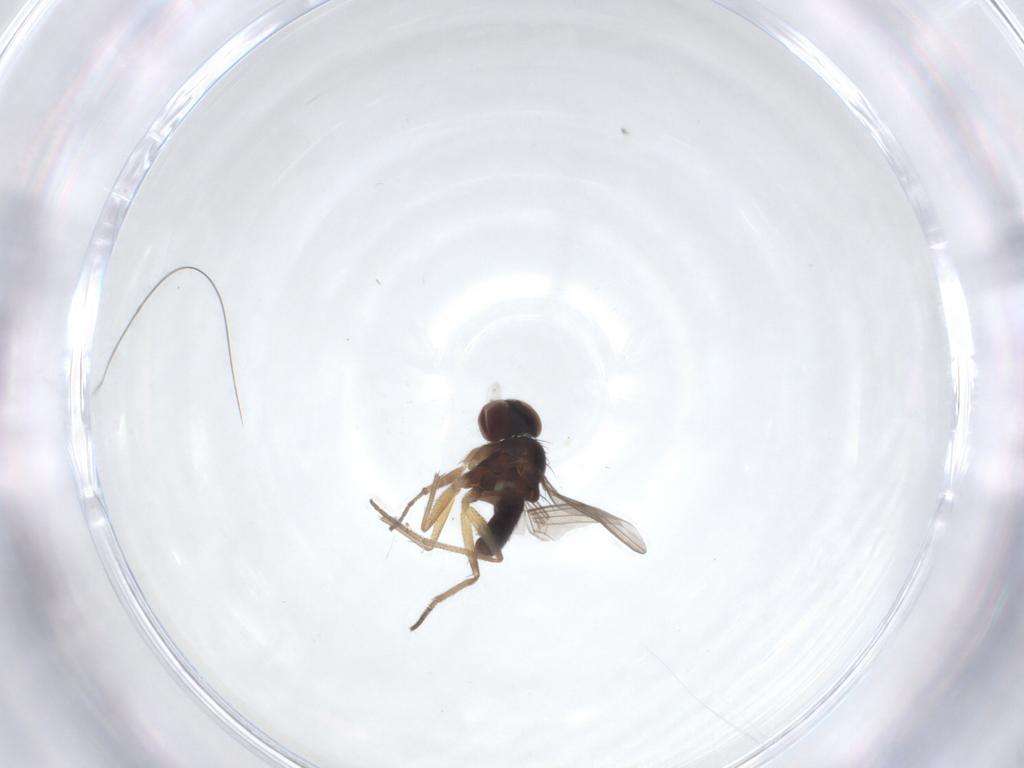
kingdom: Animalia
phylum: Arthropoda
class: Insecta
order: Diptera
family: Dolichopodidae
